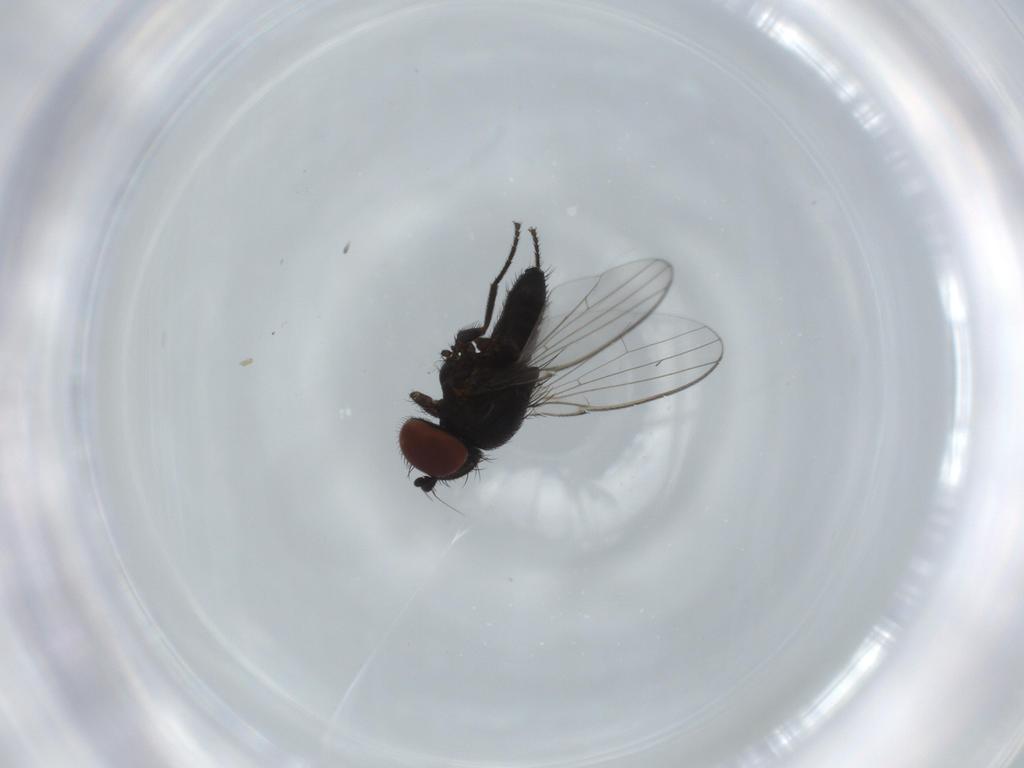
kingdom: Animalia
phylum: Arthropoda
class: Insecta
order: Diptera
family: Milichiidae
